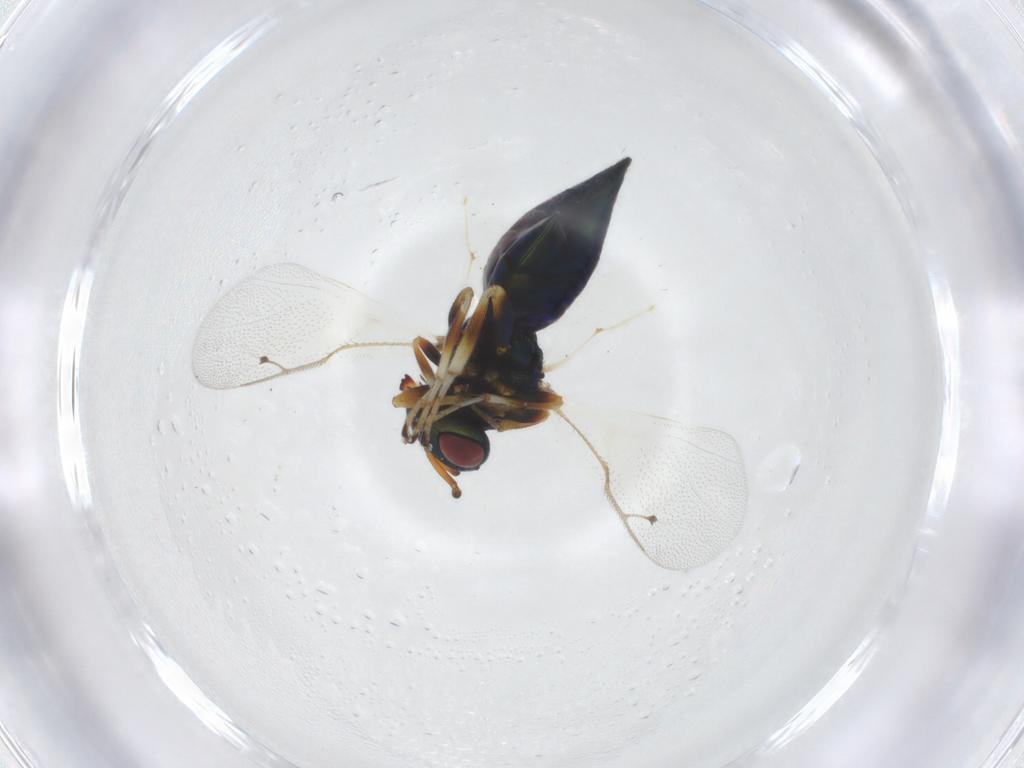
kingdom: Animalia
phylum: Arthropoda
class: Insecta
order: Hymenoptera
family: Pteromalidae
